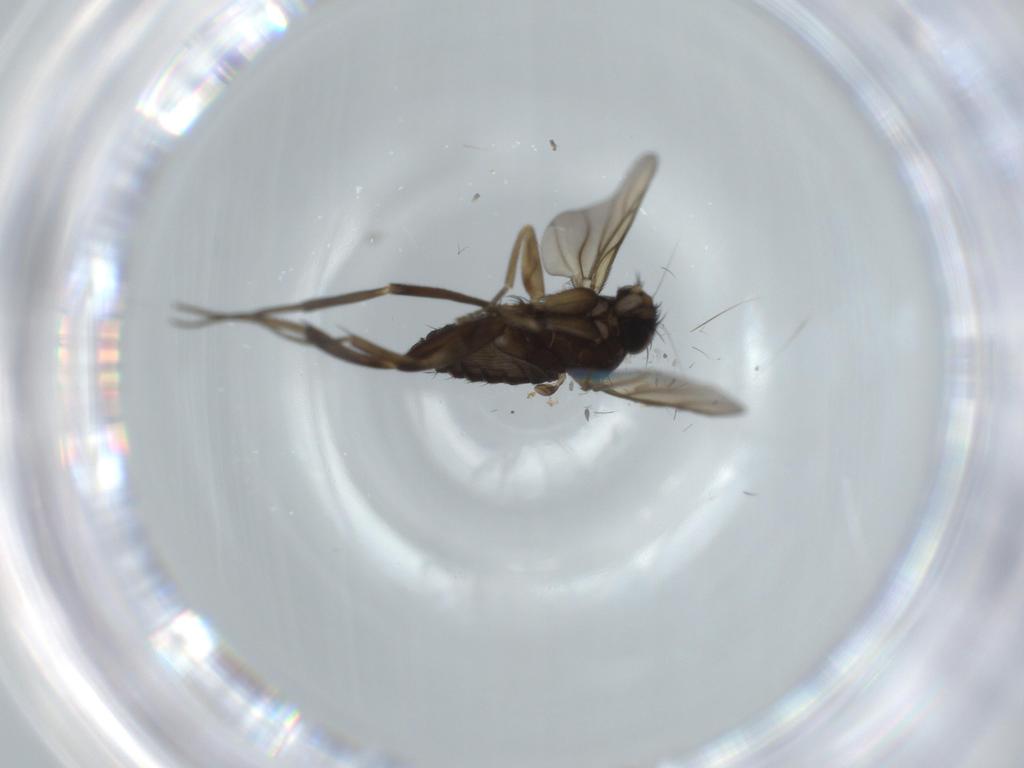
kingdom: Animalia
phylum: Arthropoda
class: Insecta
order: Diptera
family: Phoridae
